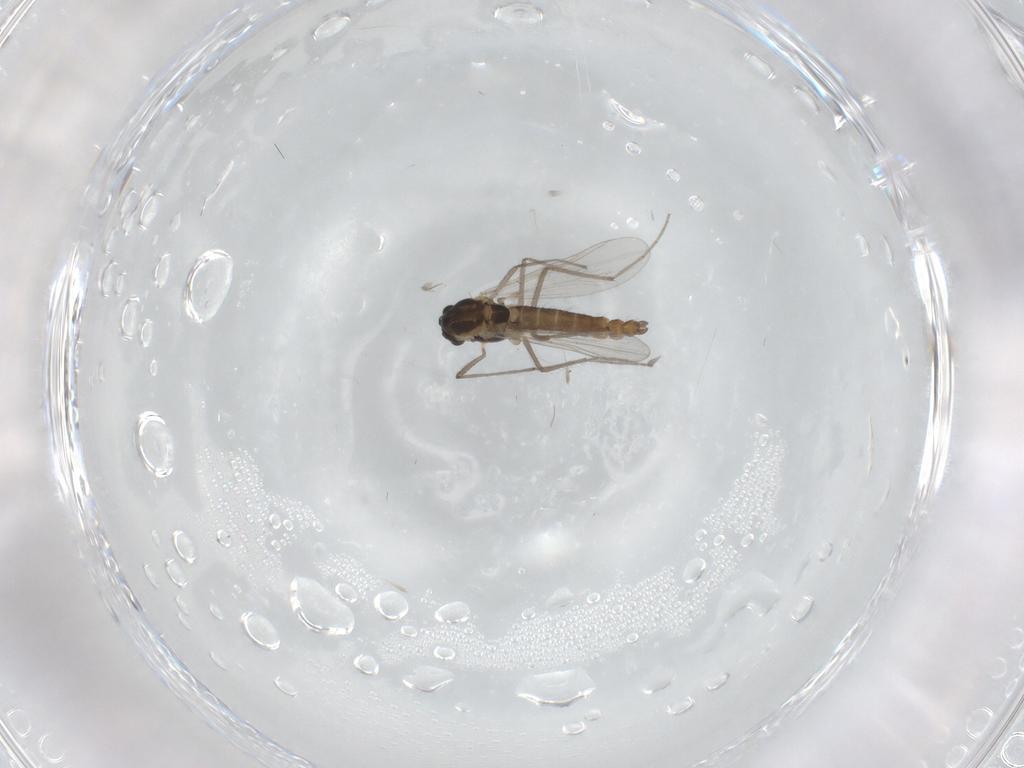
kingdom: Animalia
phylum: Arthropoda
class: Insecta
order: Diptera
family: Chironomidae
